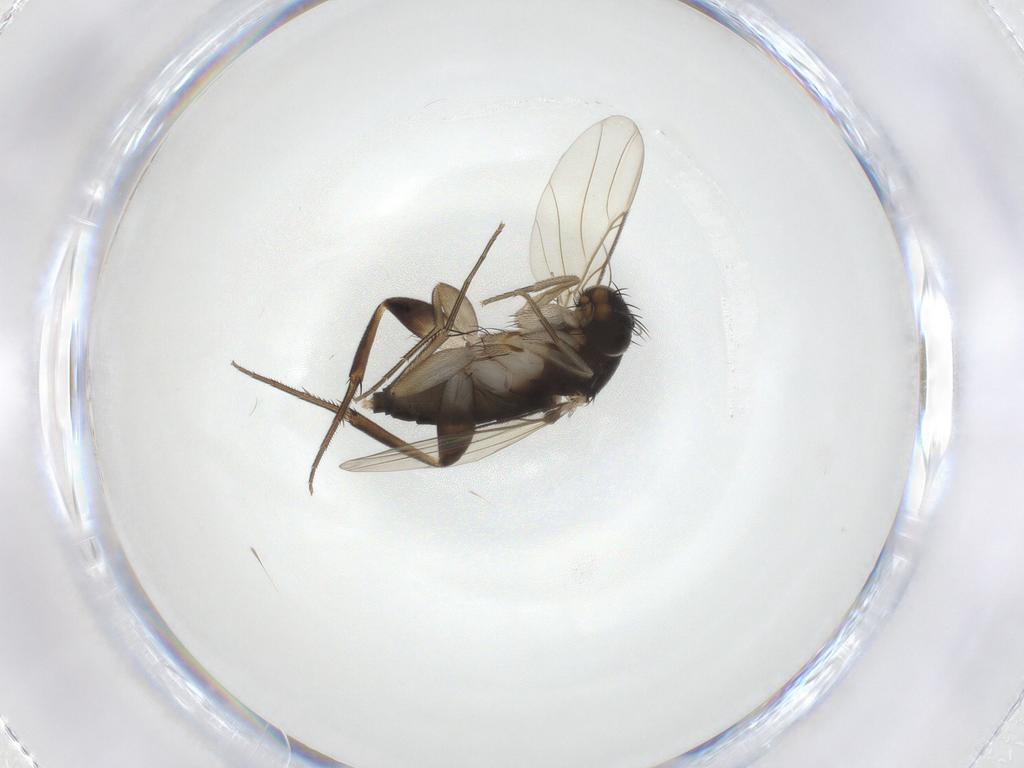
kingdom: Animalia
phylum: Arthropoda
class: Insecta
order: Diptera
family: Phoridae
